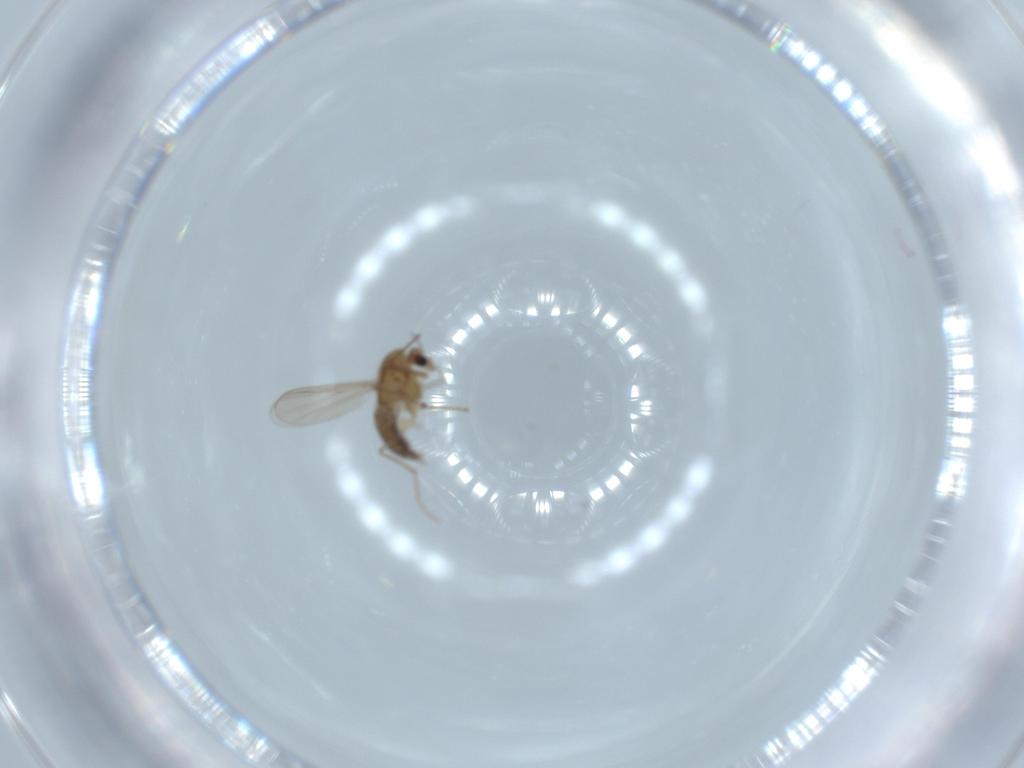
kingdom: Animalia
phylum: Arthropoda
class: Insecta
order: Diptera
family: Chironomidae
